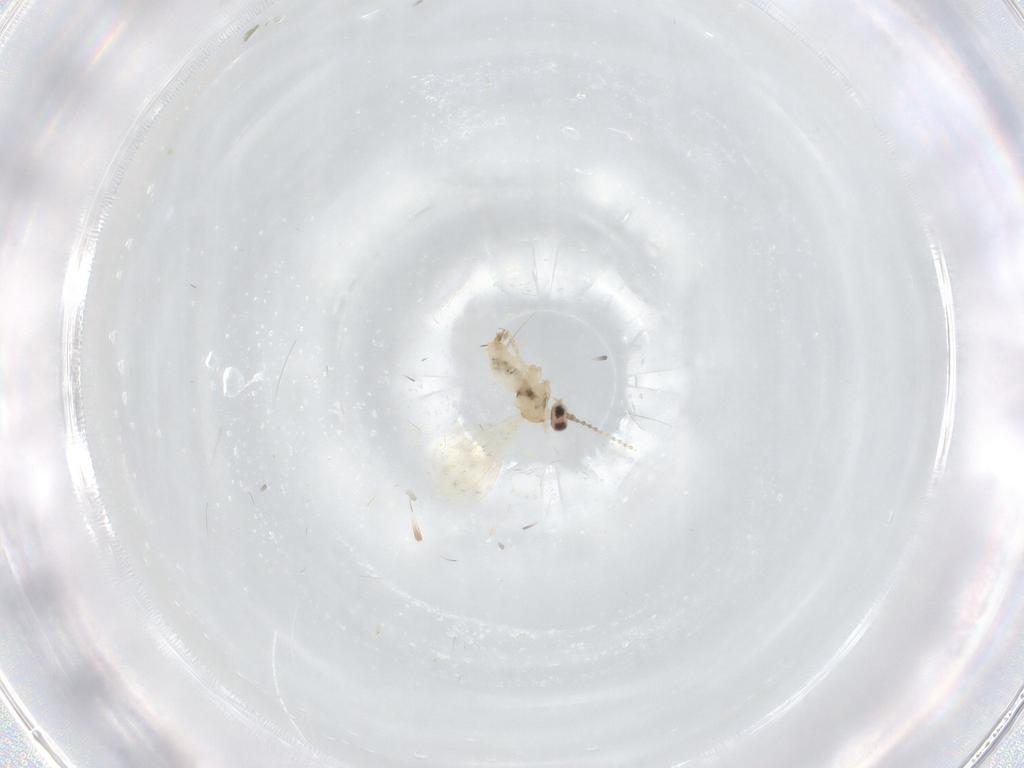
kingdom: Animalia
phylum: Arthropoda
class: Insecta
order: Diptera
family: Cecidomyiidae
